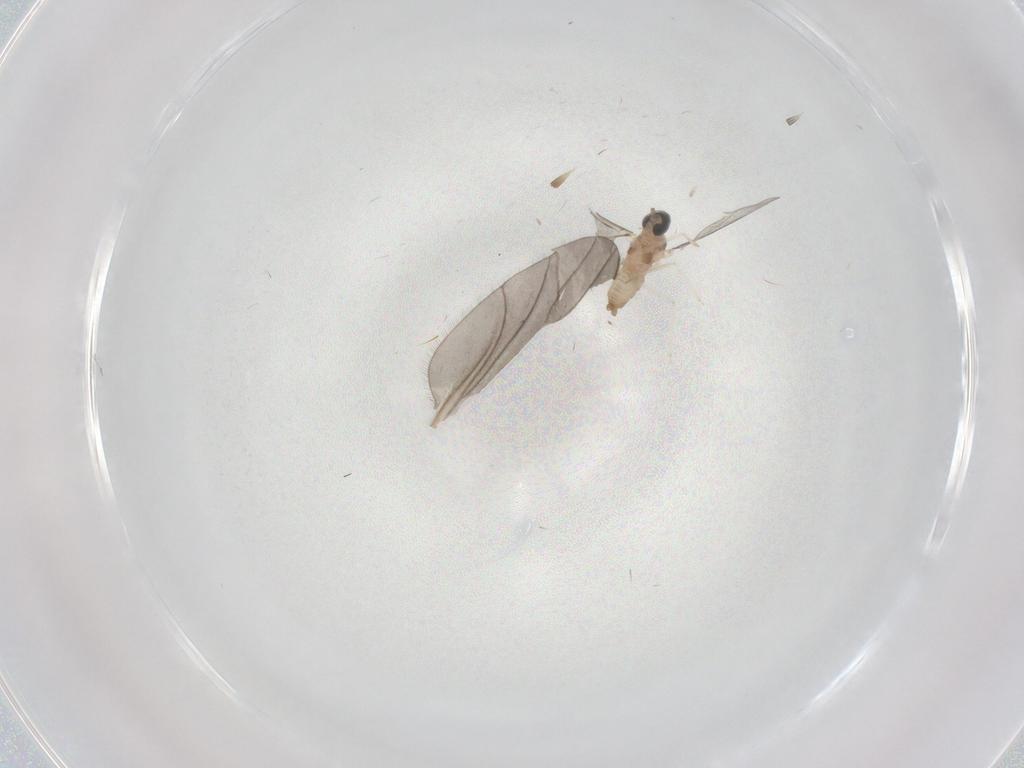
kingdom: Animalia
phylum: Arthropoda
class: Insecta
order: Diptera
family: Cecidomyiidae
